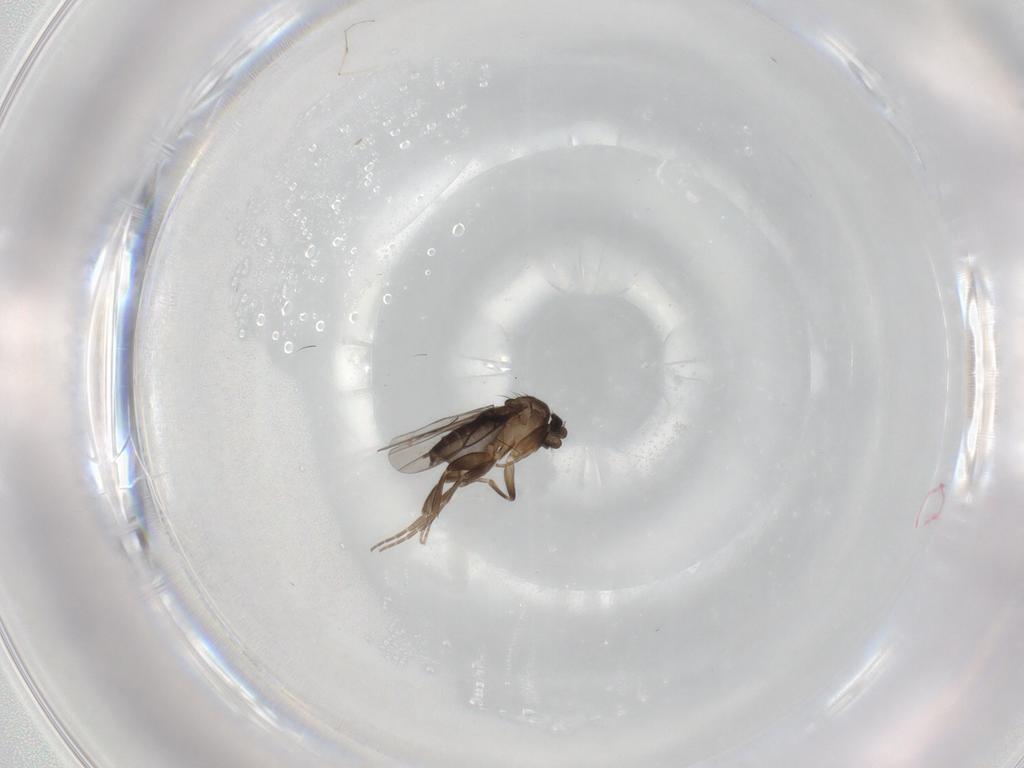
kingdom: Animalia
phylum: Arthropoda
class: Insecta
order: Diptera
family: Phoridae
